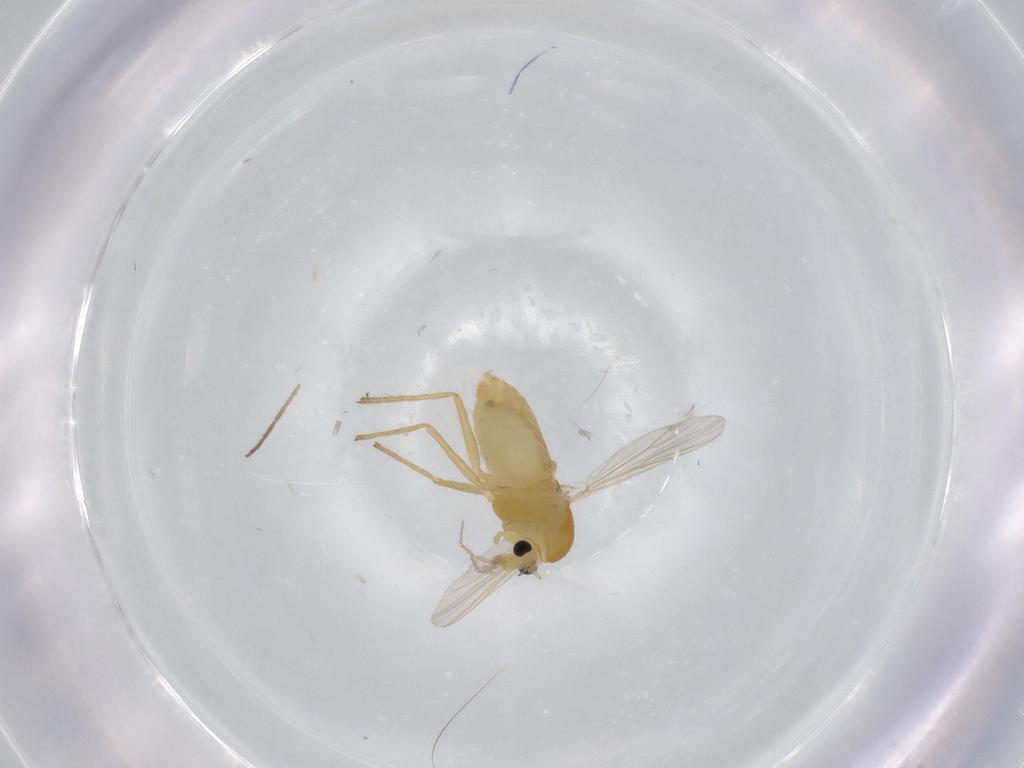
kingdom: Animalia
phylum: Arthropoda
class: Insecta
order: Diptera
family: Chironomidae
